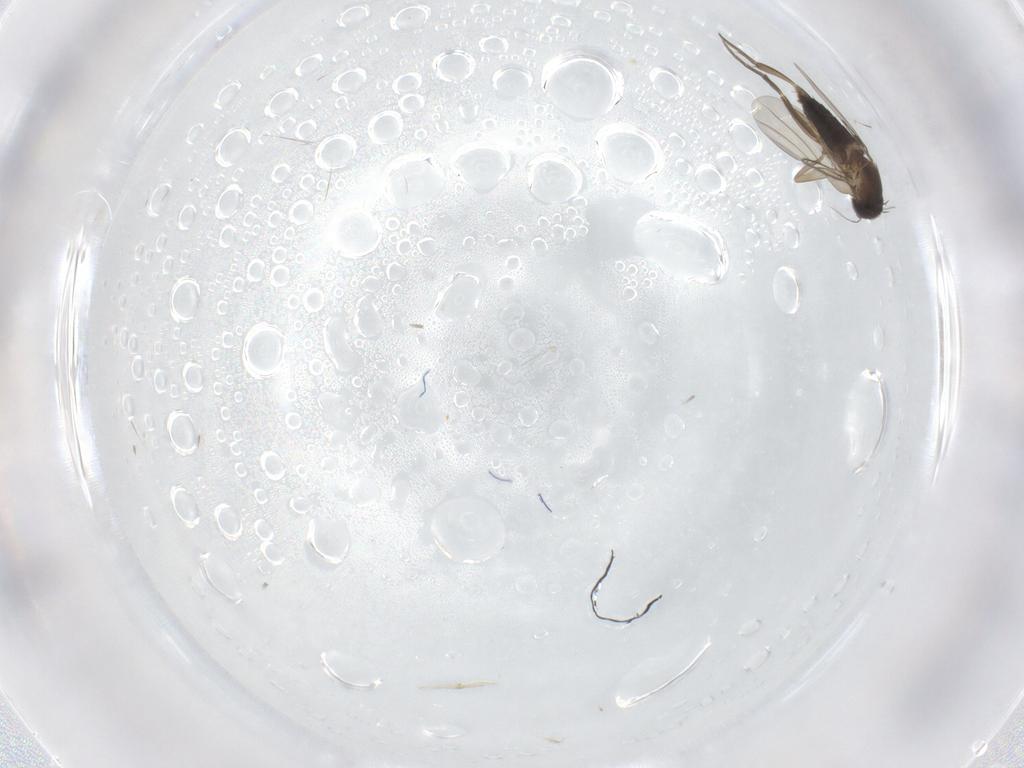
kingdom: Animalia
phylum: Arthropoda
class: Insecta
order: Diptera
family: Phoridae
